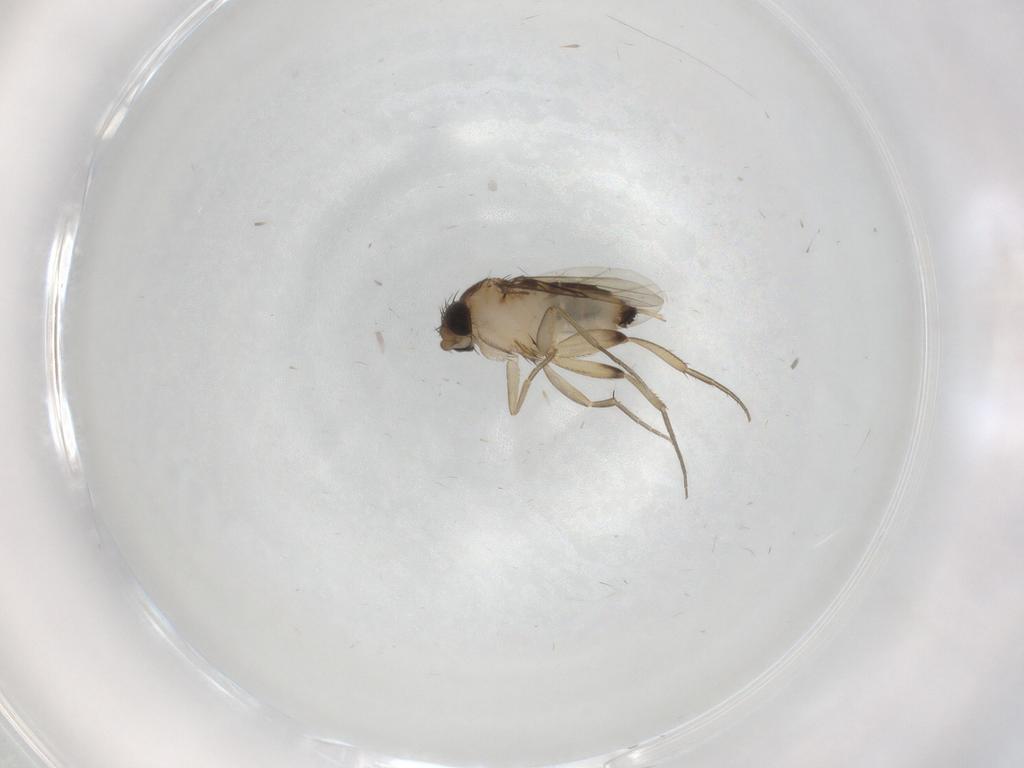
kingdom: Animalia
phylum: Arthropoda
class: Insecta
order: Diptera
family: Phoridae
